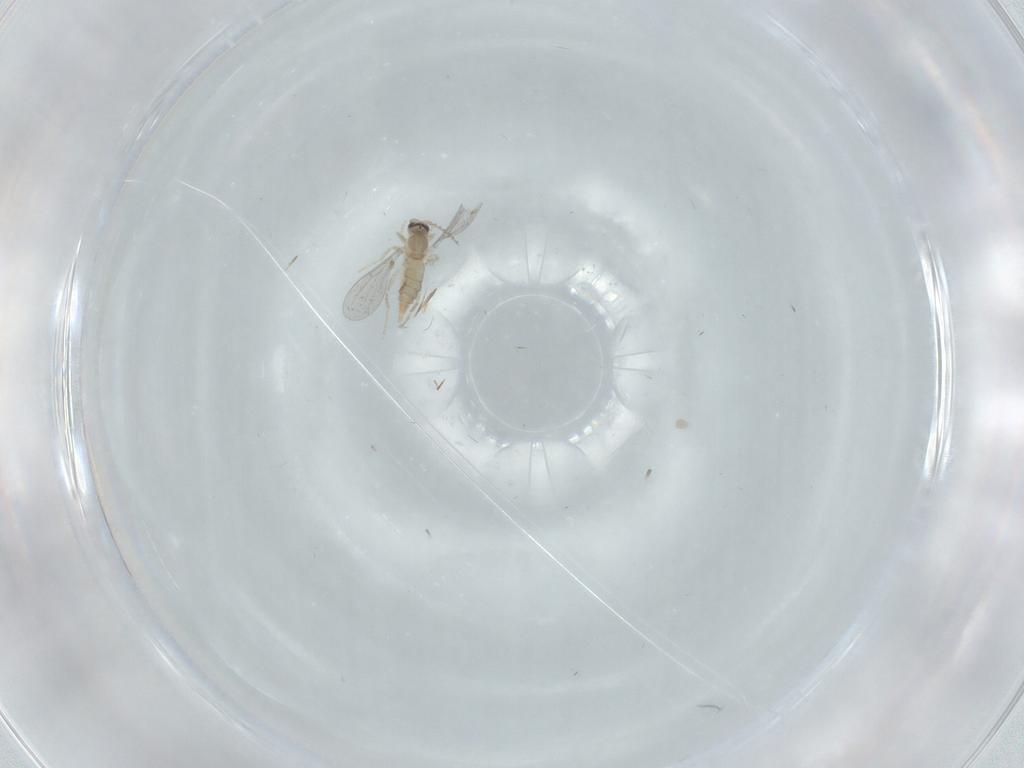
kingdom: Animalia
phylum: Arthropoda
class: Insecta
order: Diptera
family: Cecidomyiidae
